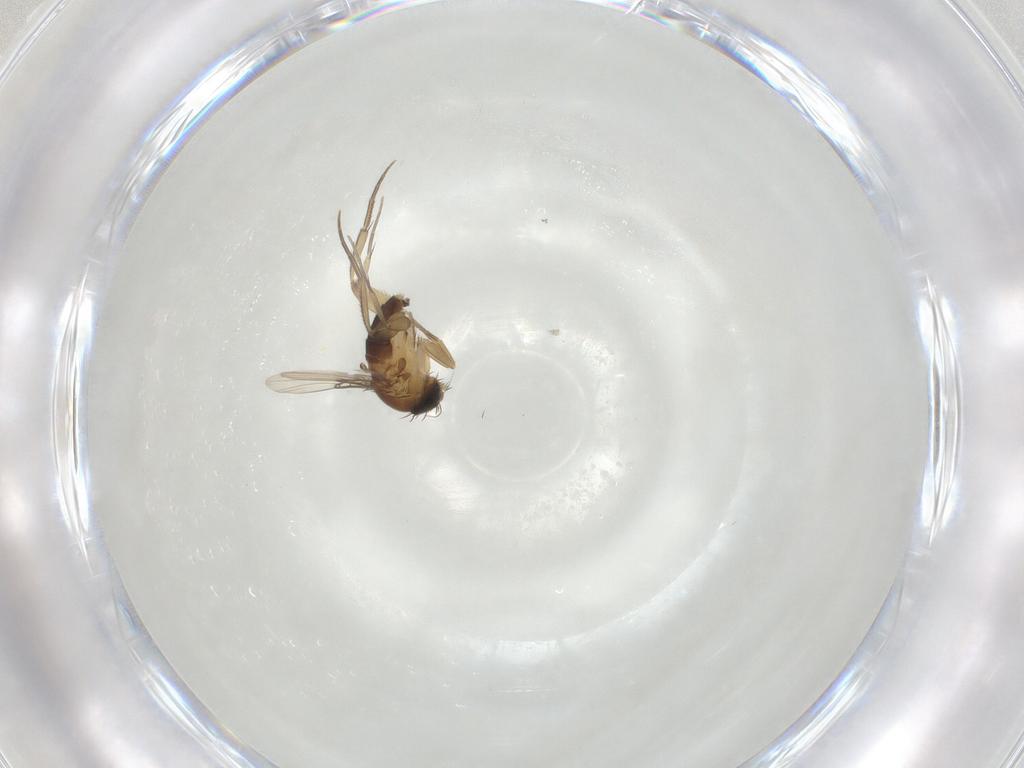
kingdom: Animalia
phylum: Arthropoda
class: Insecta
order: Diptera
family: Phoridae
